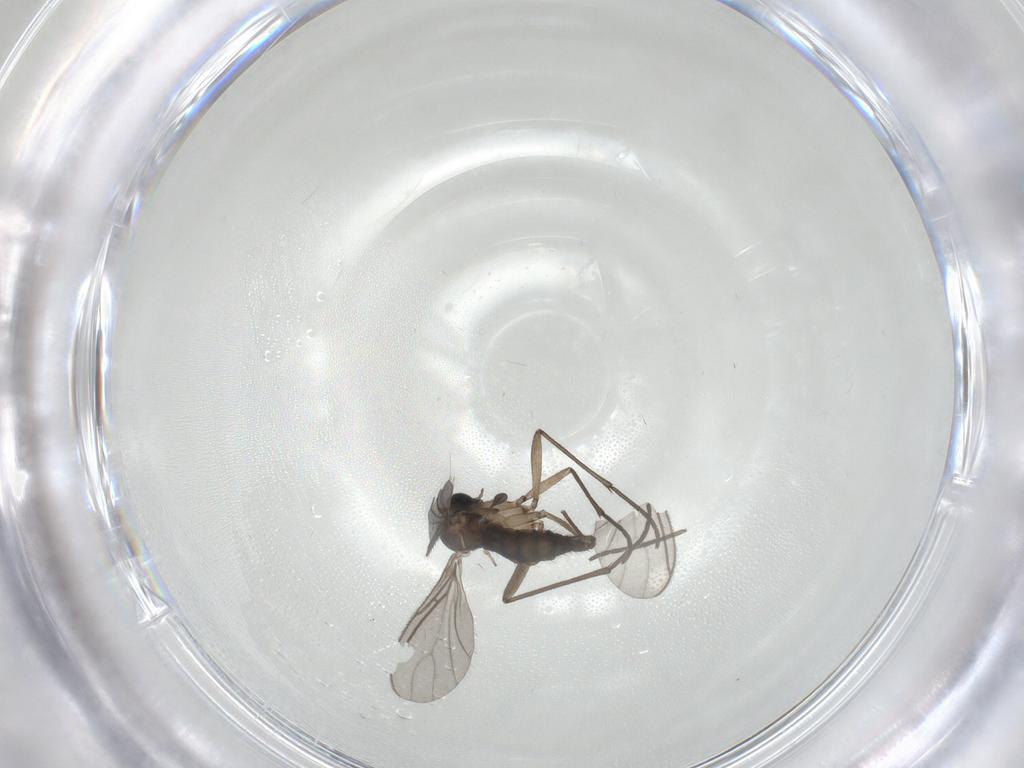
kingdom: Animalia
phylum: Arthropoda
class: Insecta
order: Diptera
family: Sciaridae
